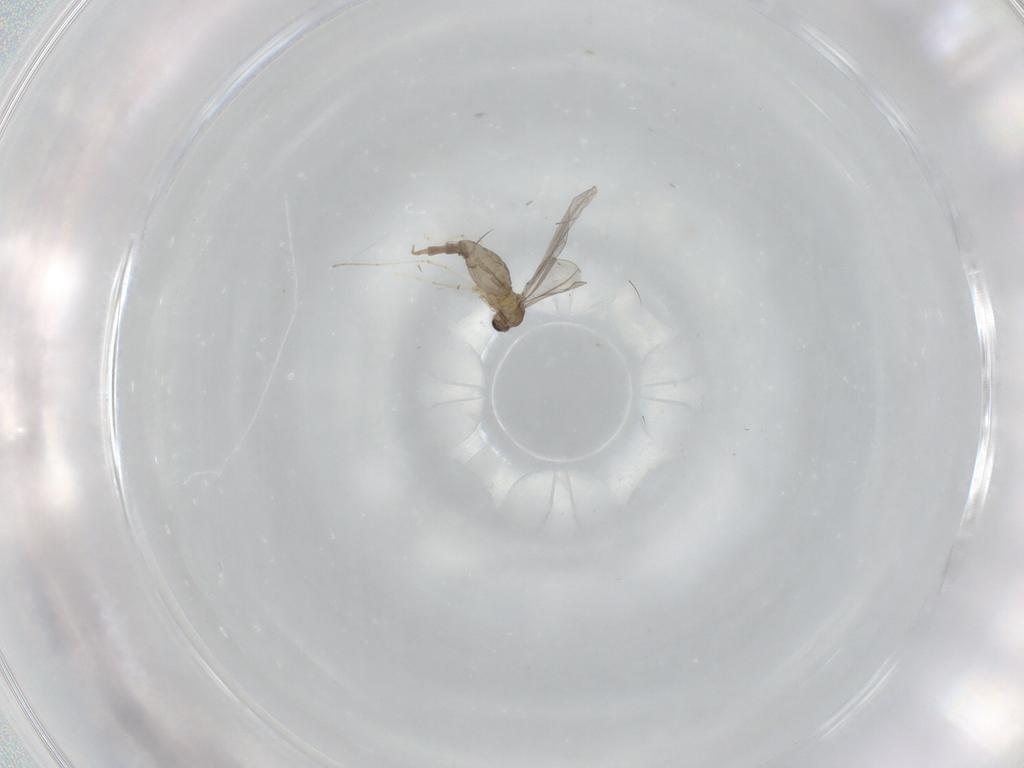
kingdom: Animalia
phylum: Arthropoda
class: Insecta
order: Diptera
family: Cecidomyiidae
